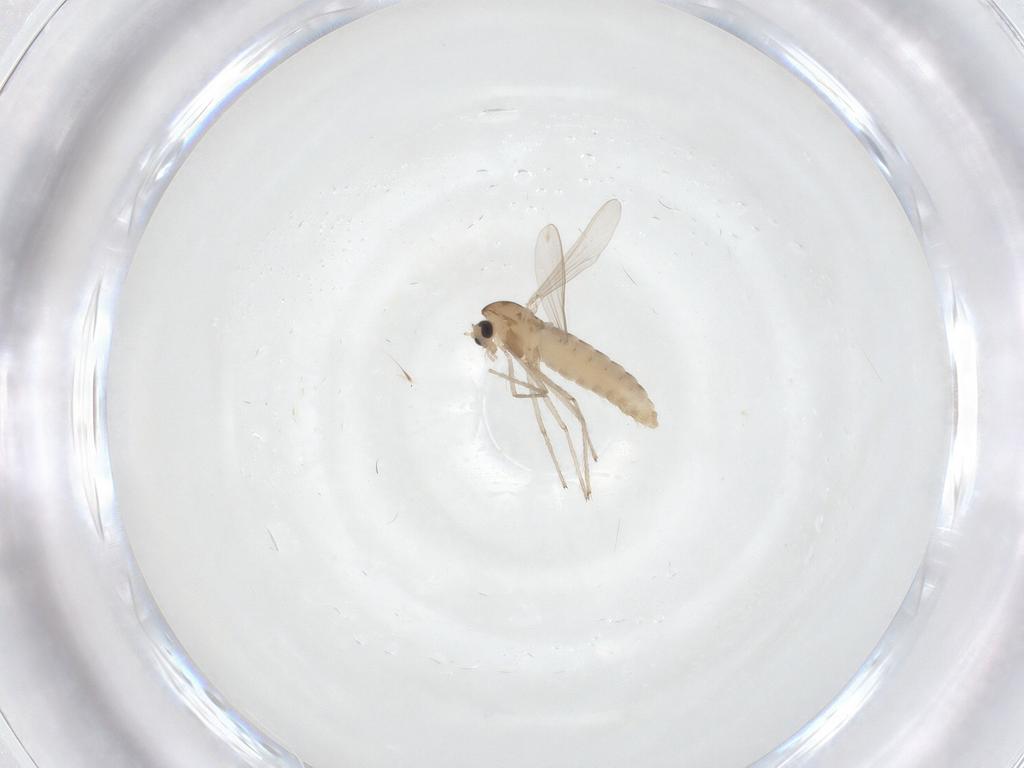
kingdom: Animalia
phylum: Arthropoda
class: Insecta
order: Diptera
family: Chironomidae
